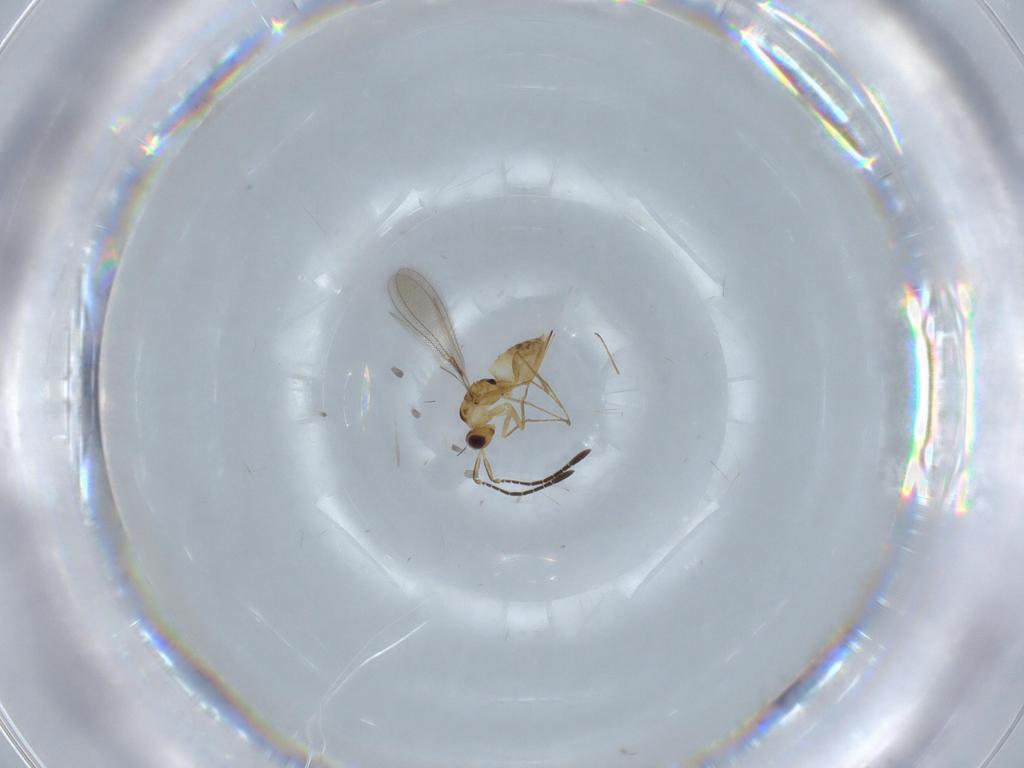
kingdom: Animalia
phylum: Arthropoda
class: Insecta
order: Hymenoptera
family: Mymaridae
